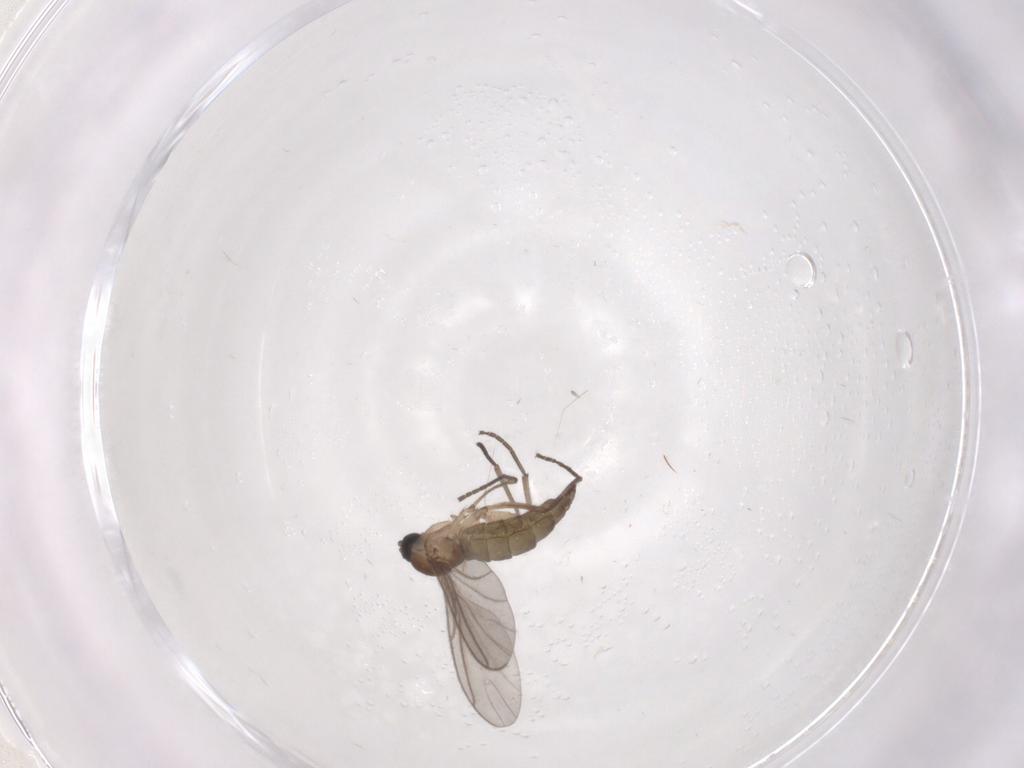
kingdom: Animalia
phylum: Arthropoda
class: Insecta
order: Diptera
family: Sciaridae
